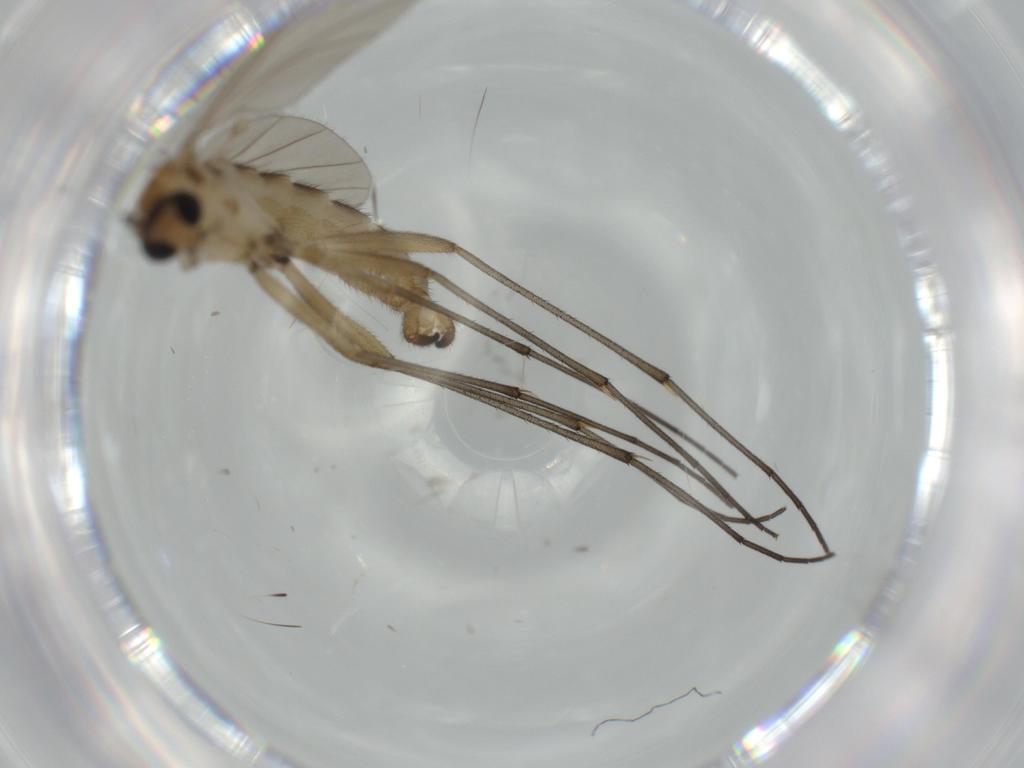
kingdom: Animalia
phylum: Arthropoda
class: Insecta
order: Diptera
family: Sciaridae
